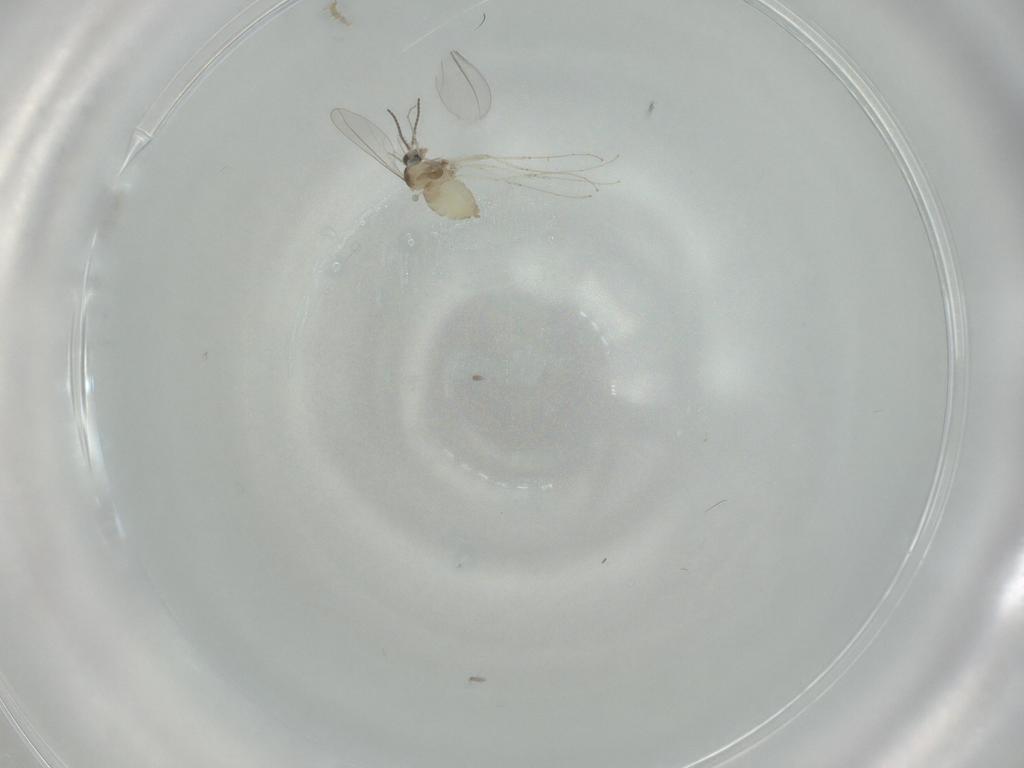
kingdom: Animalia
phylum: Arthropoda
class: Insecta
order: Diptera
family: Cecidomyiidae
